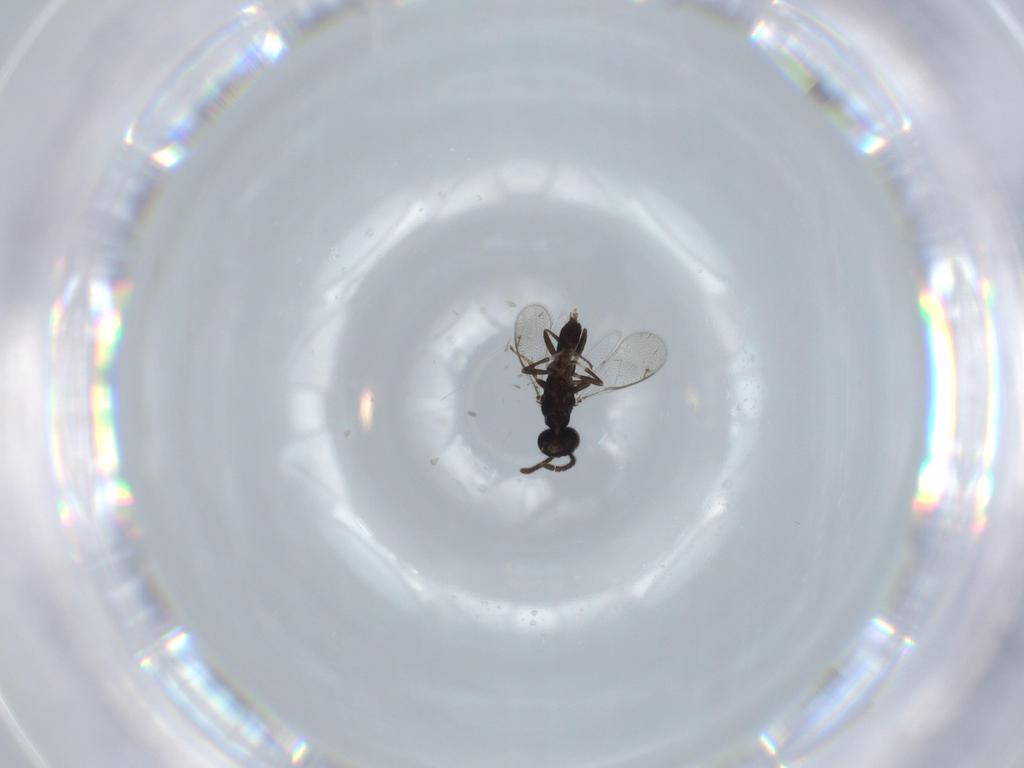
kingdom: Animalia
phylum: Arthropoda
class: Insecta
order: Hymenoptera
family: Eupelmidae
